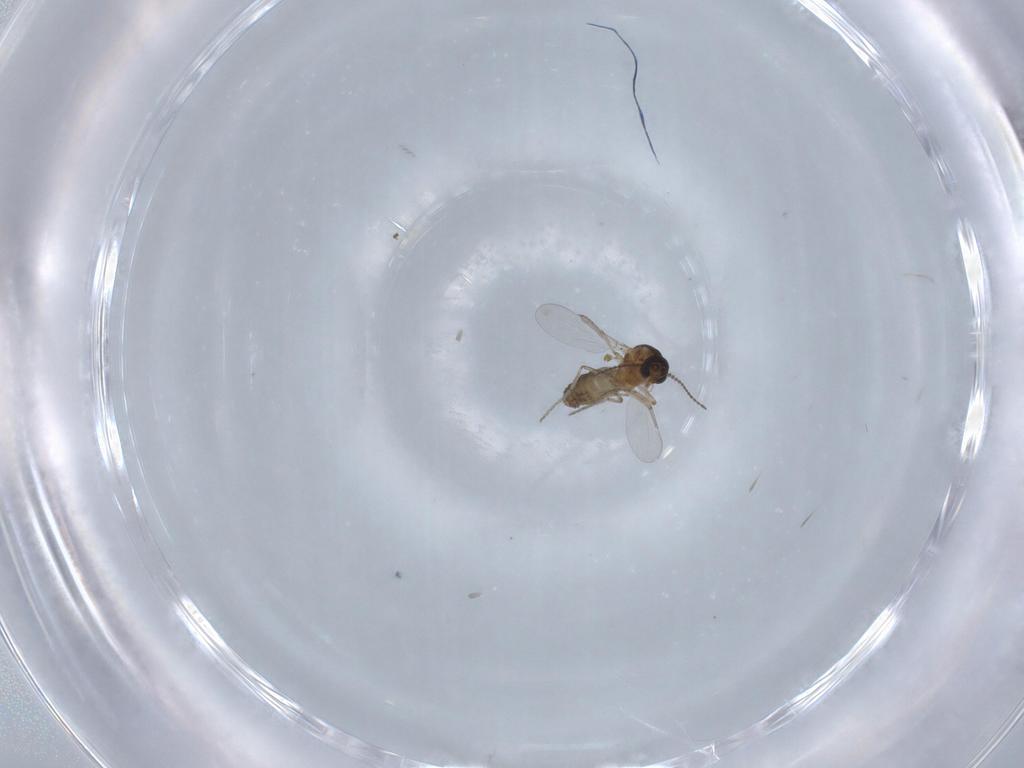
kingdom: Animalia
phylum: Arthropoda
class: Insecta
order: Diptera
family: Ceratopogonidae
